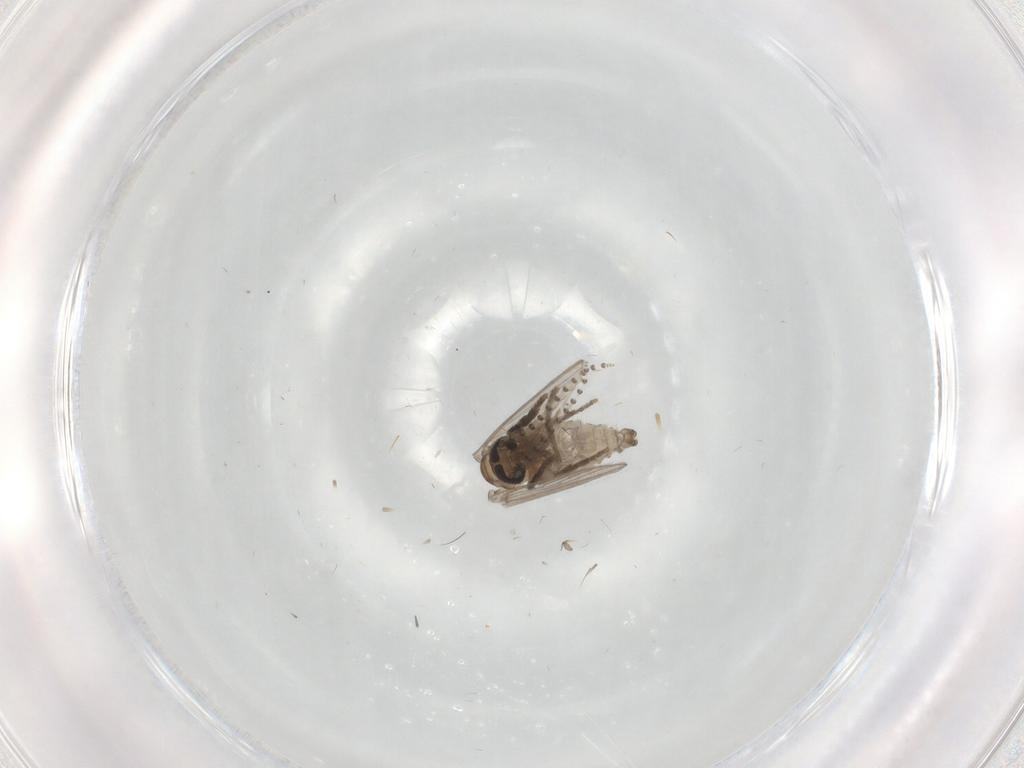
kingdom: Animalia
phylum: Arthropoda
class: Insecta
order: Diptera
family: Psychodidae
